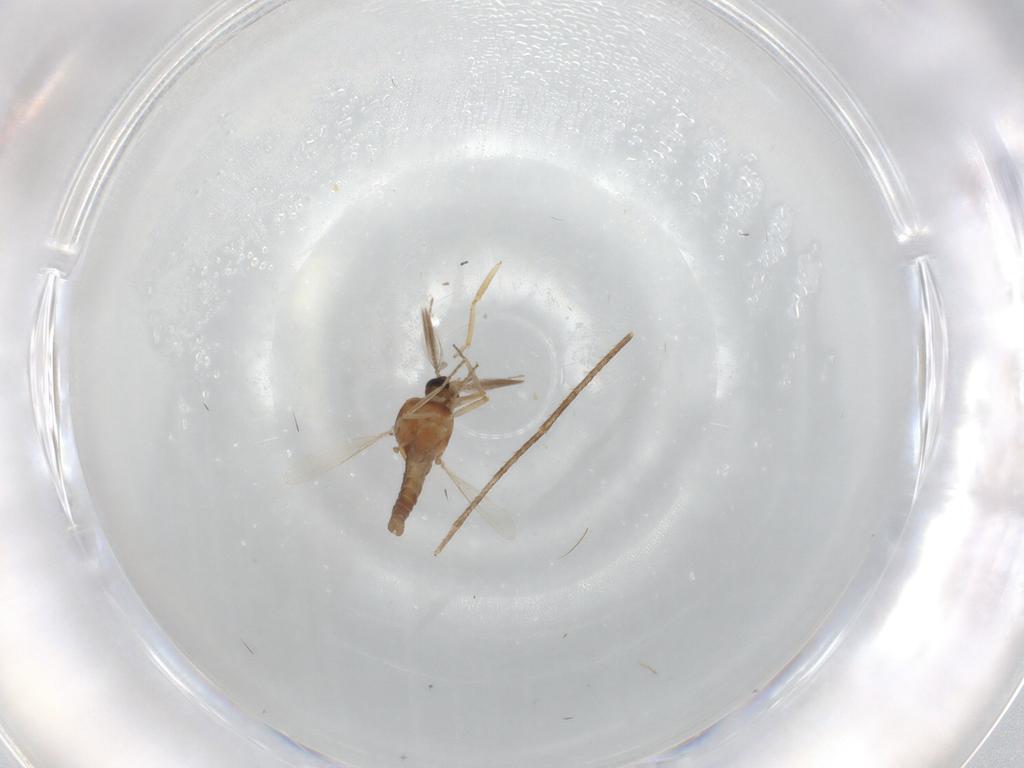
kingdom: Animalia
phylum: Arthropoda
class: Insecta
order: Diptera
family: Ceratopogonidae
